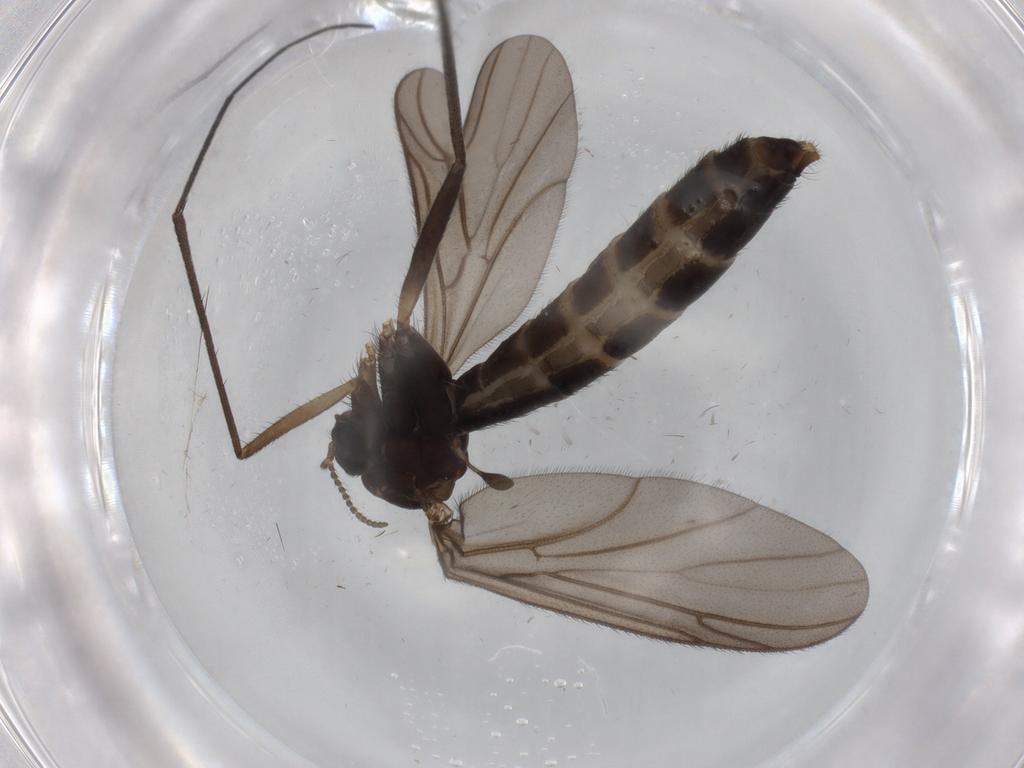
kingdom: Animalia
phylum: Arthropoda
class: Insecta
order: Diptera
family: Ditomyiidae
